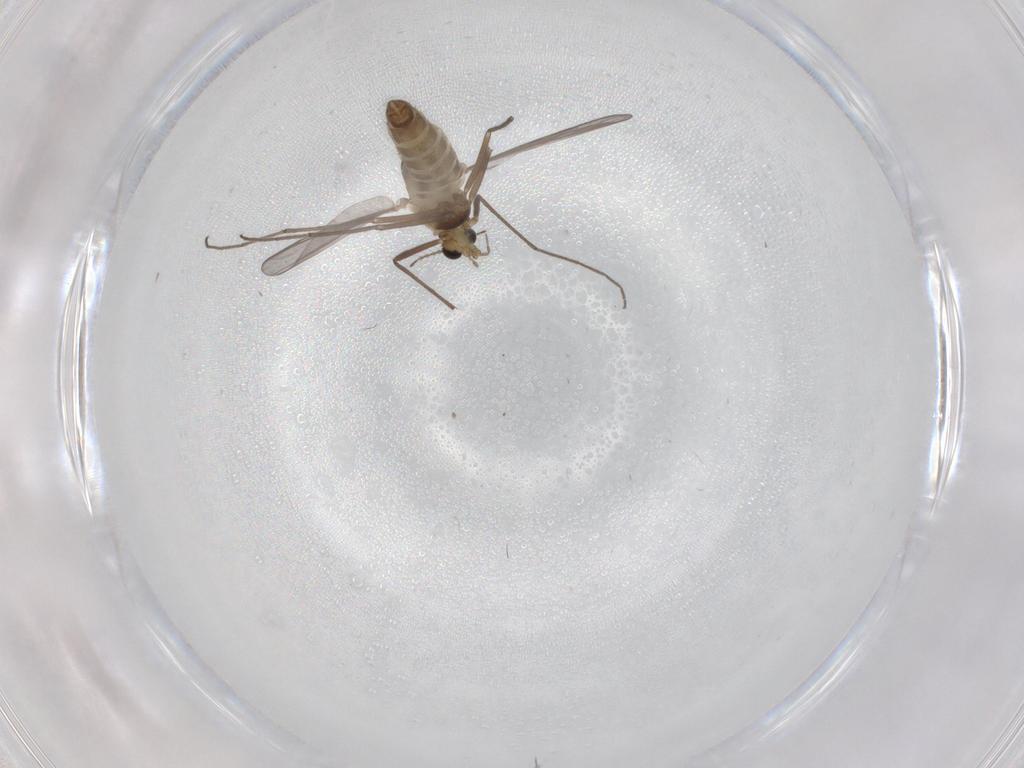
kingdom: Animalia
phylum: Arthropoda
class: Insecta
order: Diptera
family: Chironomidae
